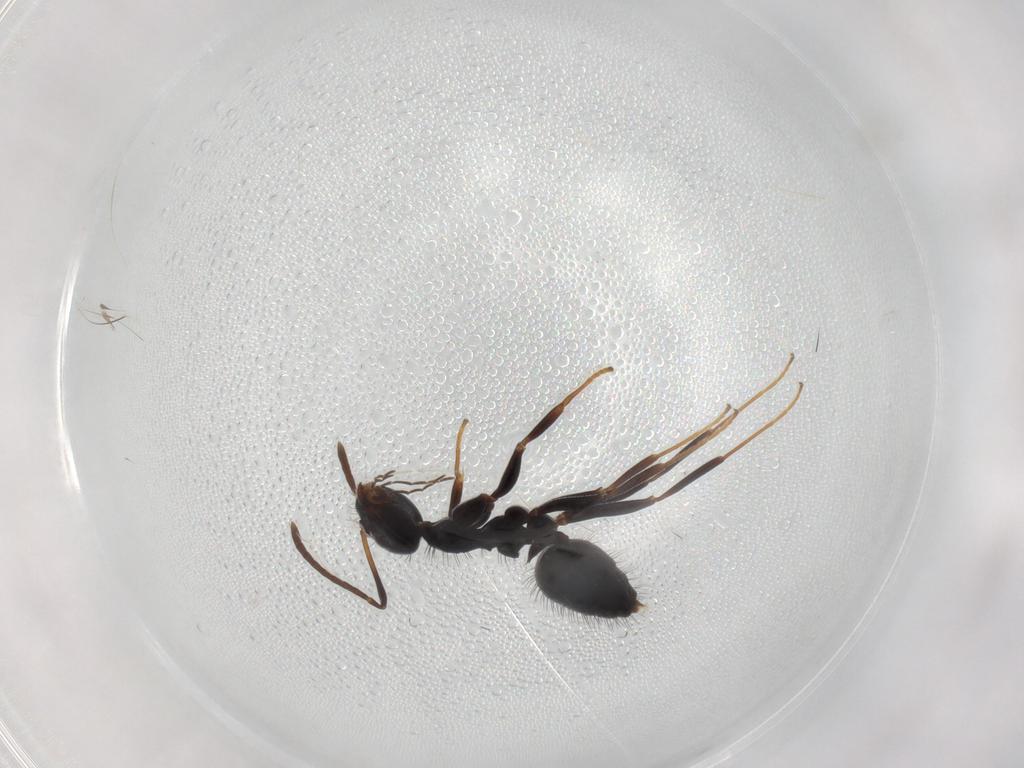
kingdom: Animalia
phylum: Arthropoda
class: Insecta
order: Hymenoptera
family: Formicidae
